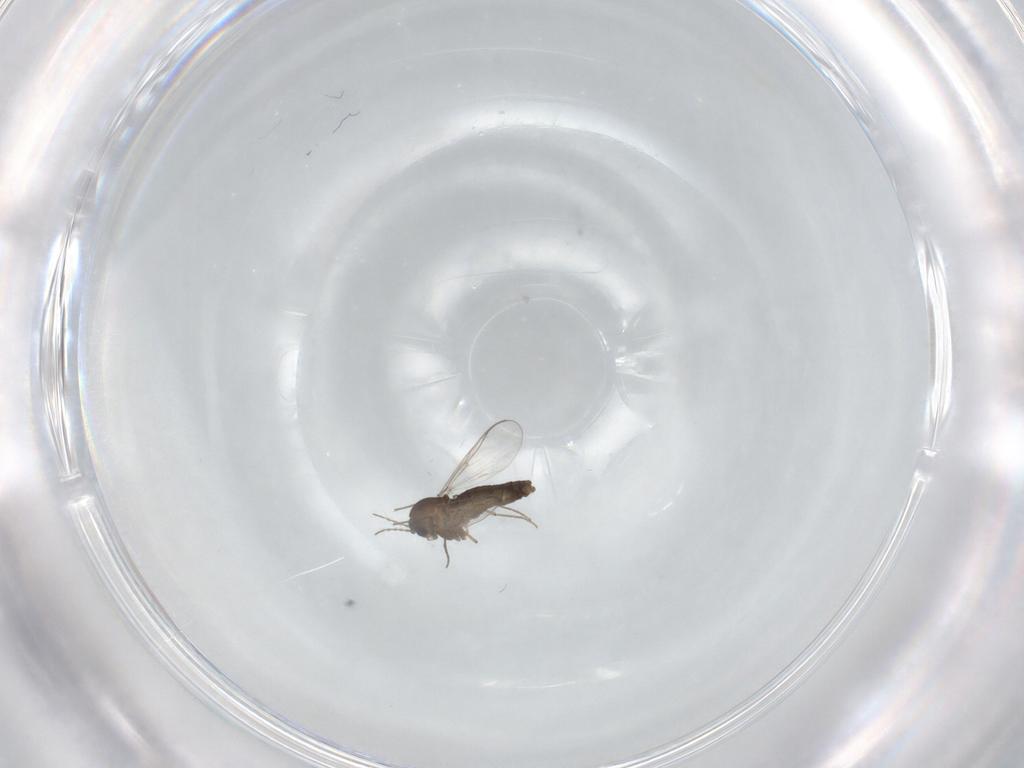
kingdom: Animalia
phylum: Arthropoda
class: Insecta
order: Diptera
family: Chironomidae
